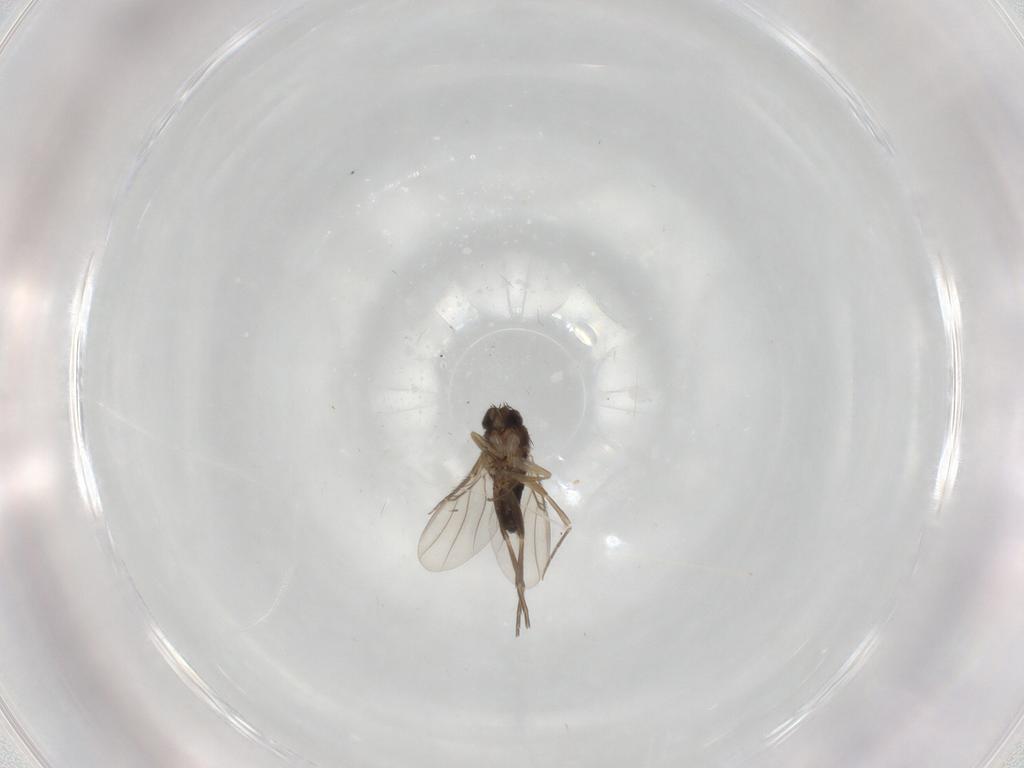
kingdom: Animalia
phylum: Arthropoda
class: Insecta
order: Diptera
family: Phoridae
